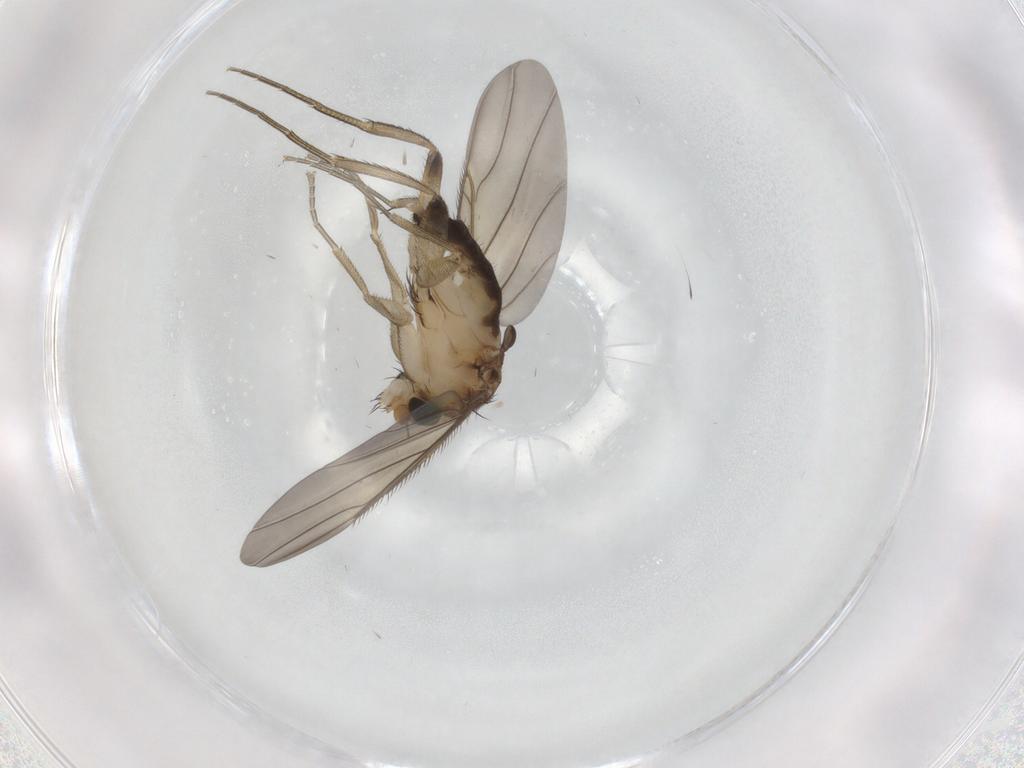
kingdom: Animalia
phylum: Arthropoda
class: Insecta
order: Diptera
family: Phoridae
